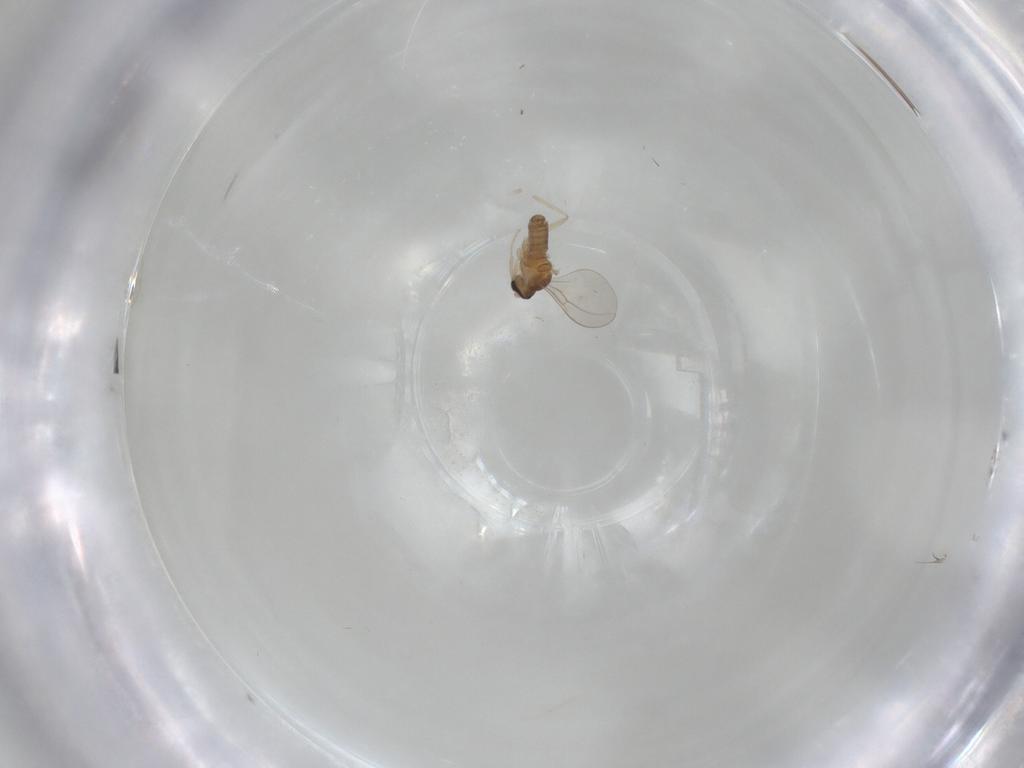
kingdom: Animalia
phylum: Arthropoda
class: Insecta
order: Diptera
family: Cecidomyiidae
